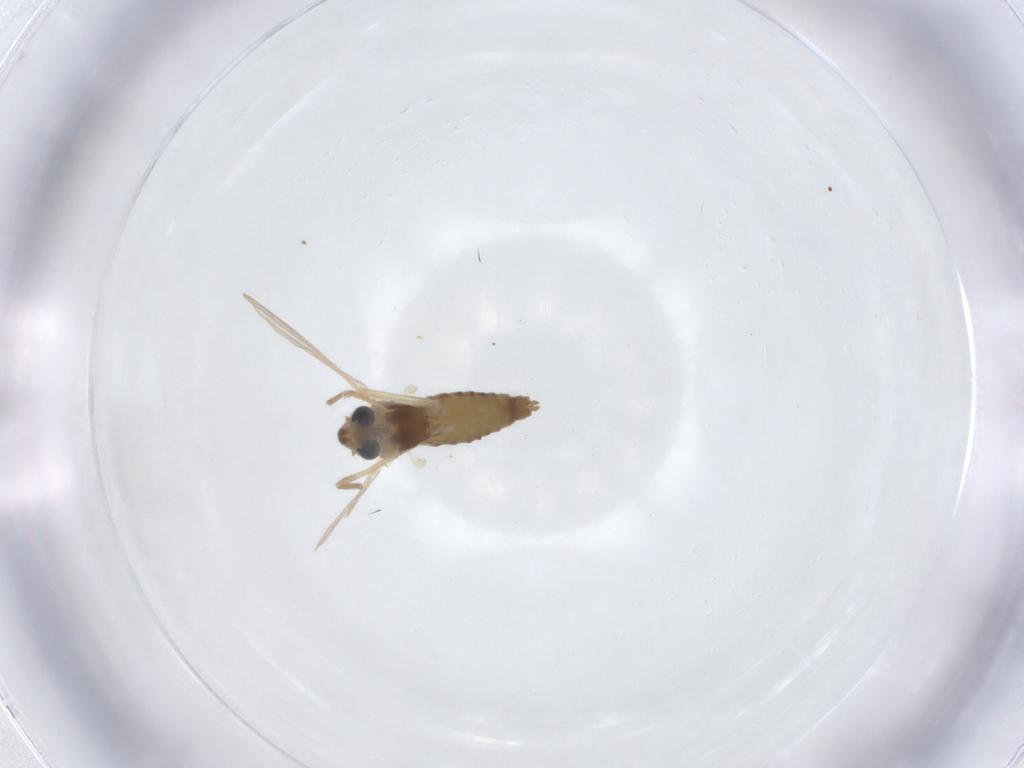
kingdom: Animalia
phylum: Arthropoda
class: Insecta
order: Diptera
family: Chironomidae
